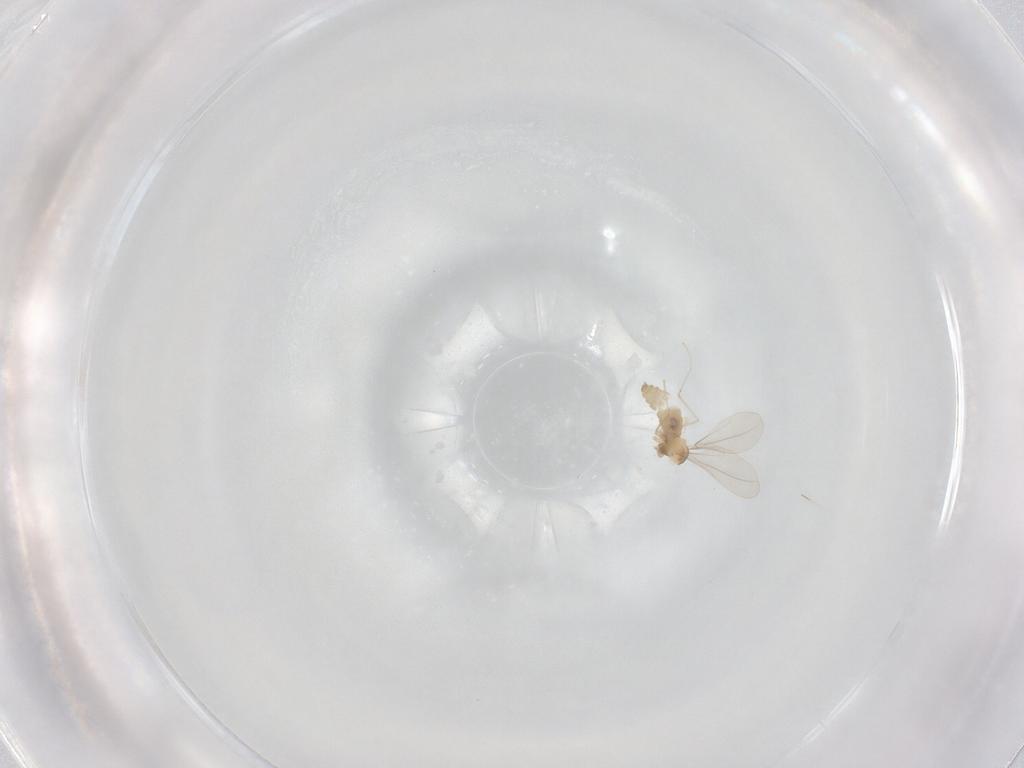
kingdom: Animalia
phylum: Arthropoda
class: Insecta
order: Diptera
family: Cecidomyiidae
